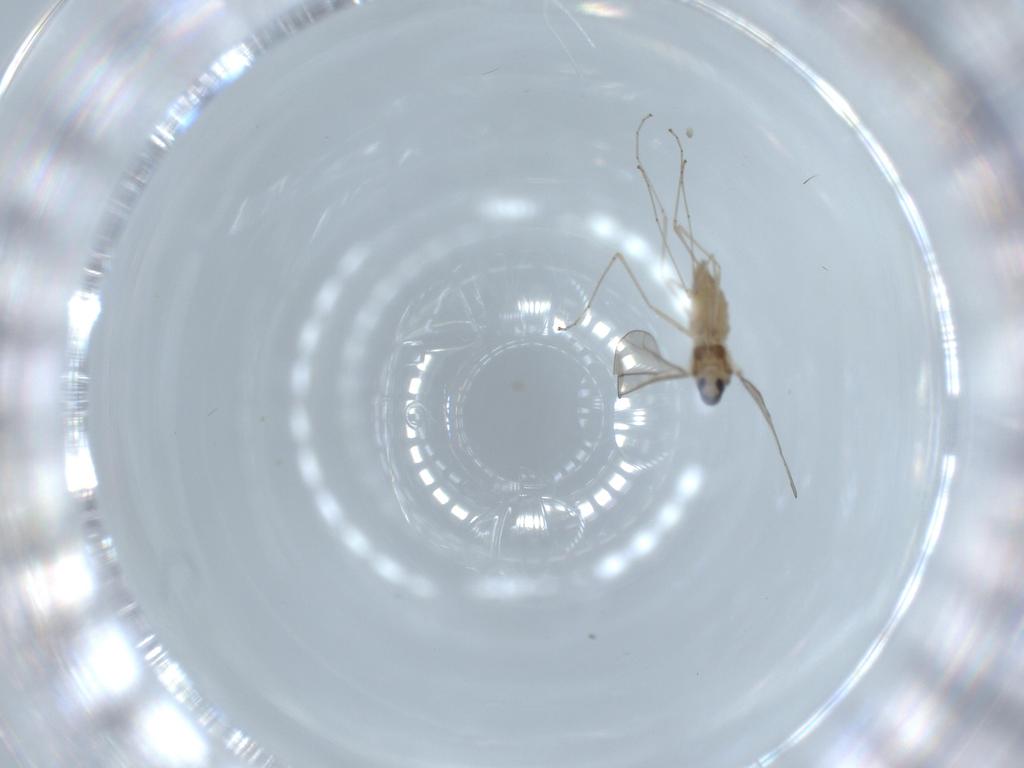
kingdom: Animalia
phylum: Arthropoda
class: Insecta
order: Diptera
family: Cecidomyiidae
